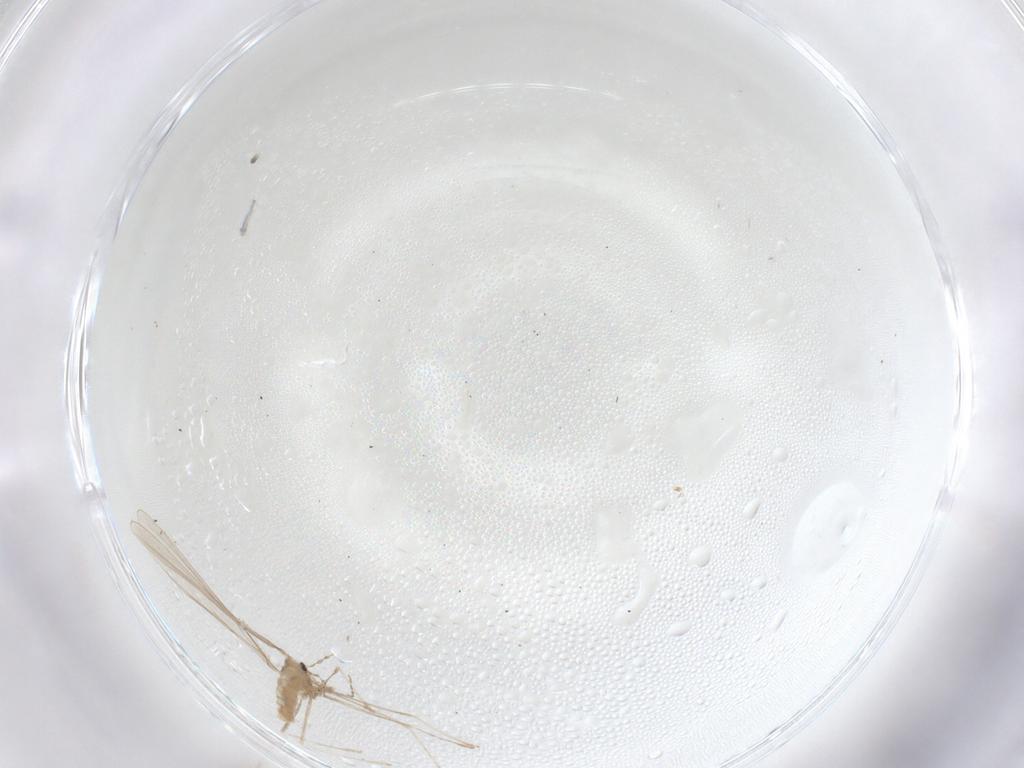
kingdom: Animalia
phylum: Arthropoda
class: Insecta
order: Diptera
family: Cecidomyiidae
